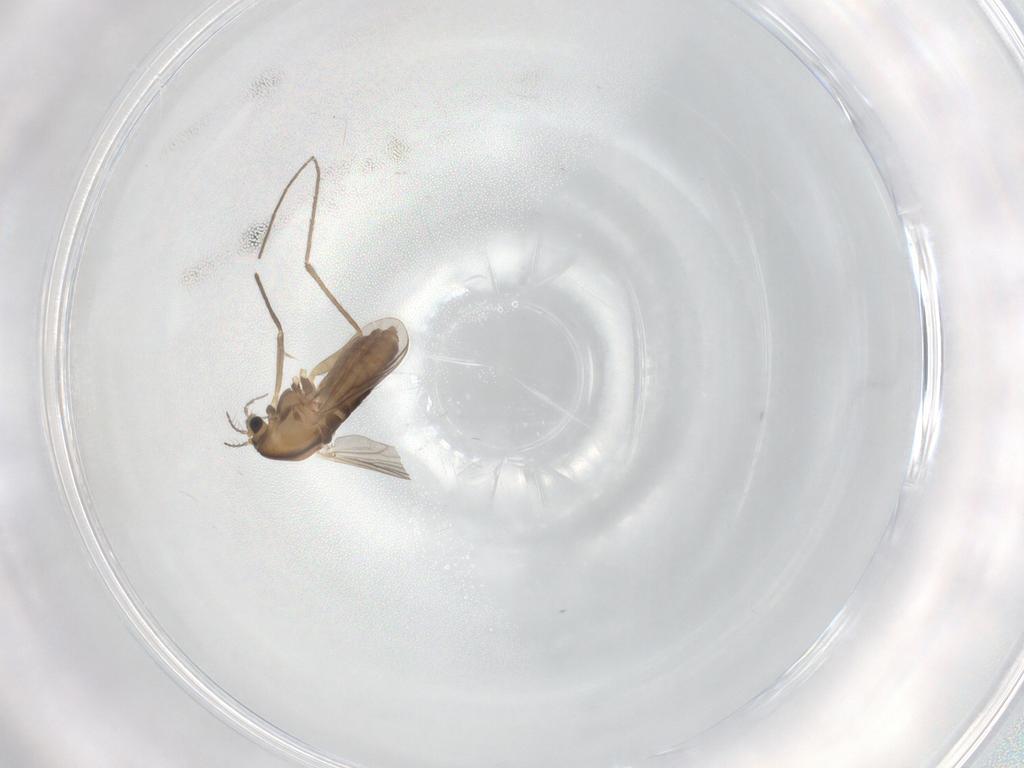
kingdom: Animalia
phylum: Arthropoda
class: Insecta
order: Diptera
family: Chironomidae
